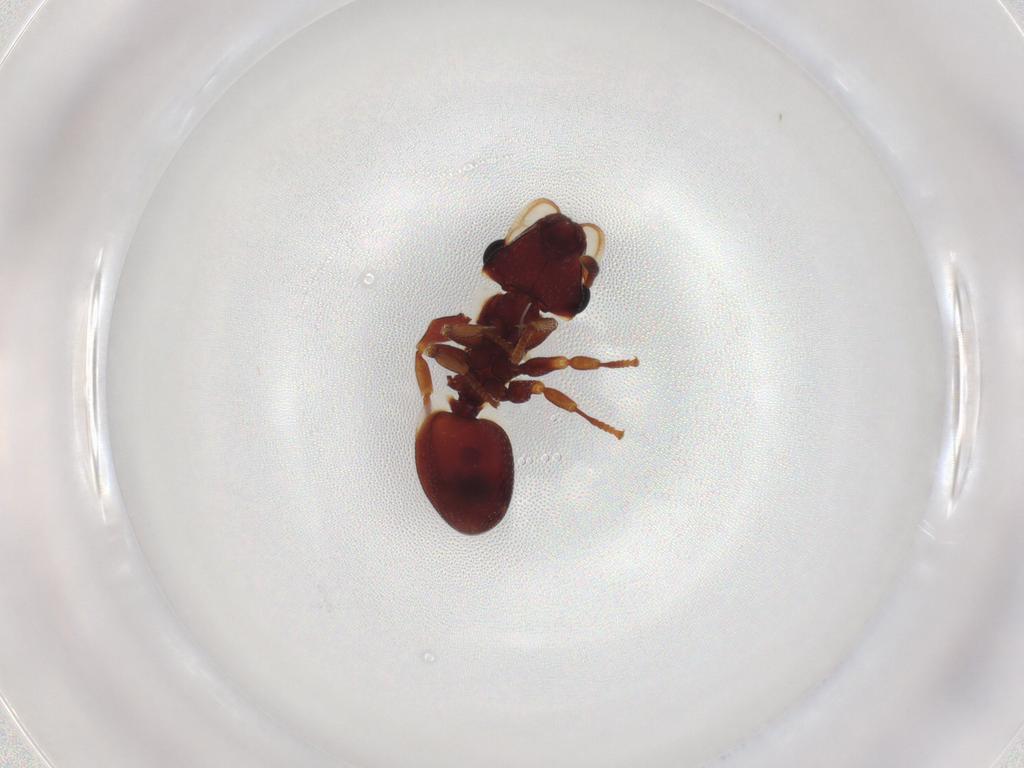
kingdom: Animalia
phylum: Arthropoda
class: Insecta
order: Hymenoptera
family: Formicidae
